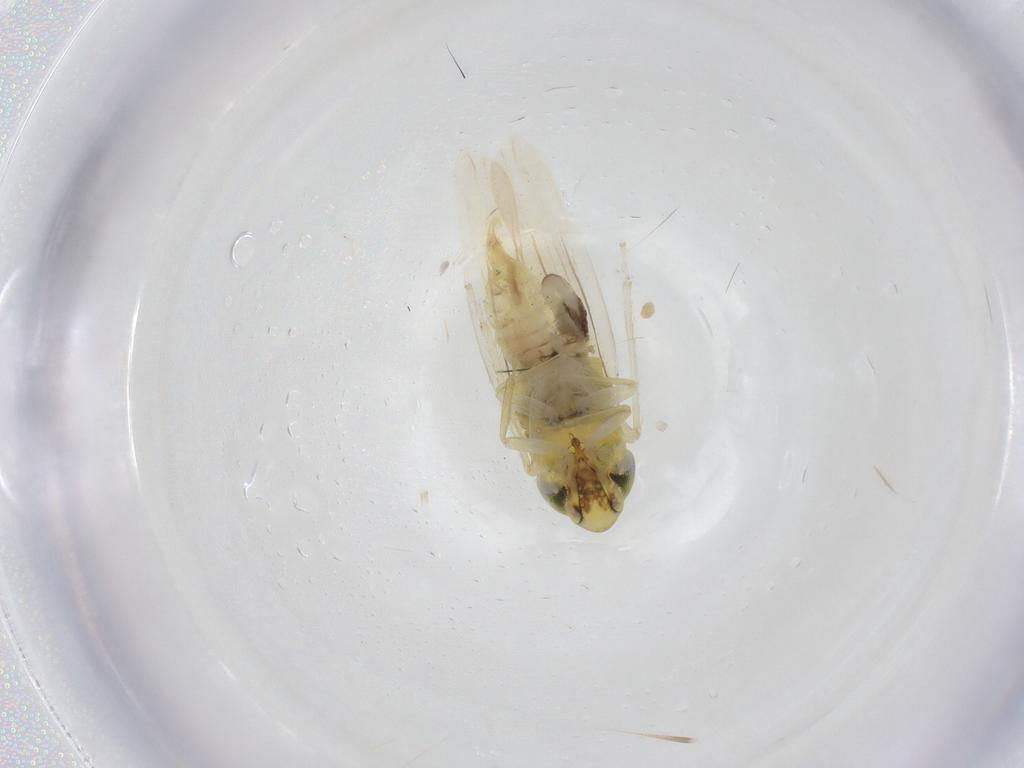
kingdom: Animalia
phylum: Arthropoda
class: Insecta
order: Hemiptera
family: Cicadellidae
